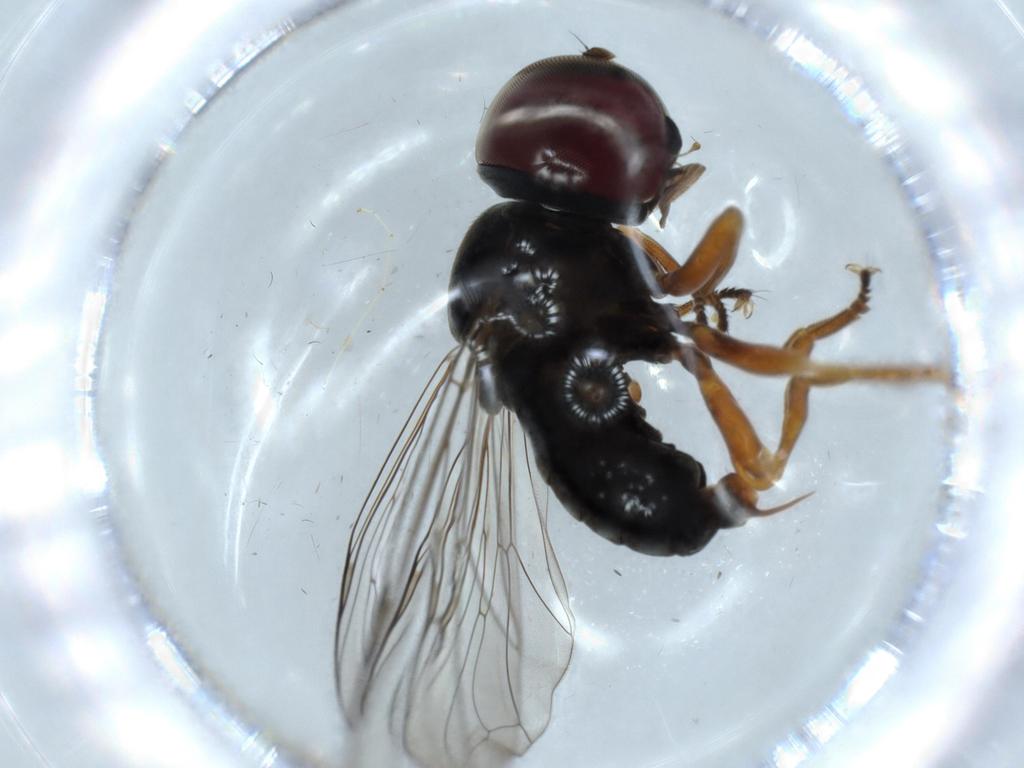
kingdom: Animalia
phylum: Arthropoda
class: Insecta
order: Diptera
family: Pipunculidae
